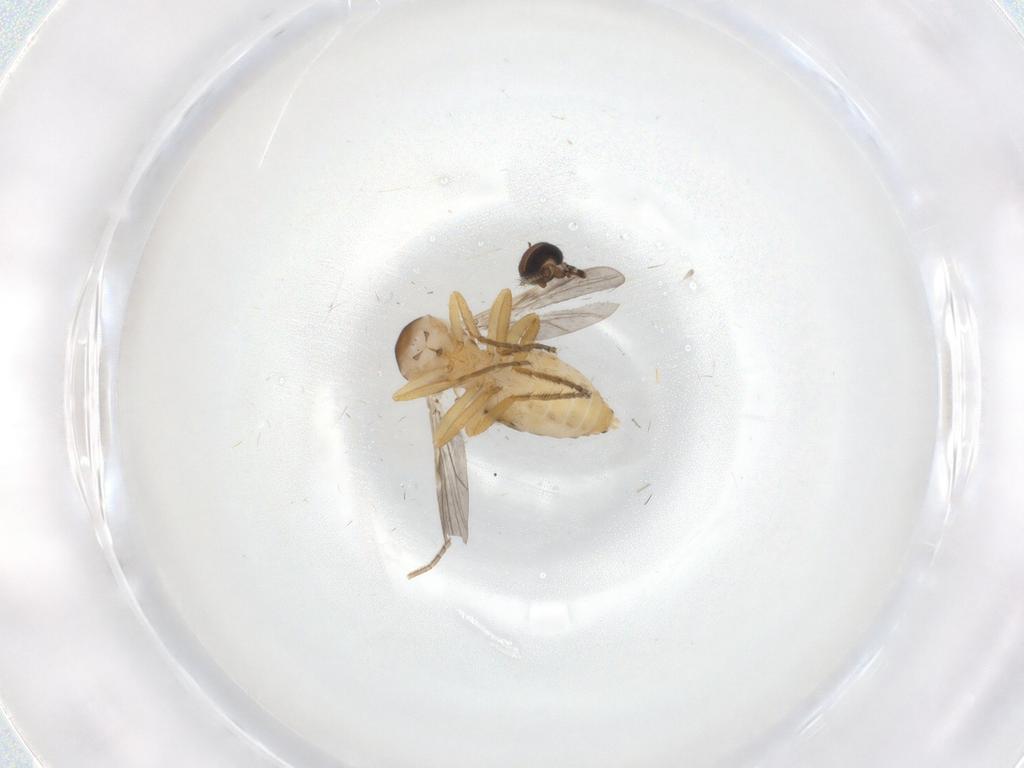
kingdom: Animalia
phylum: Arthropoda
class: Insecta
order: Diptera
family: Ceratopogonidae
